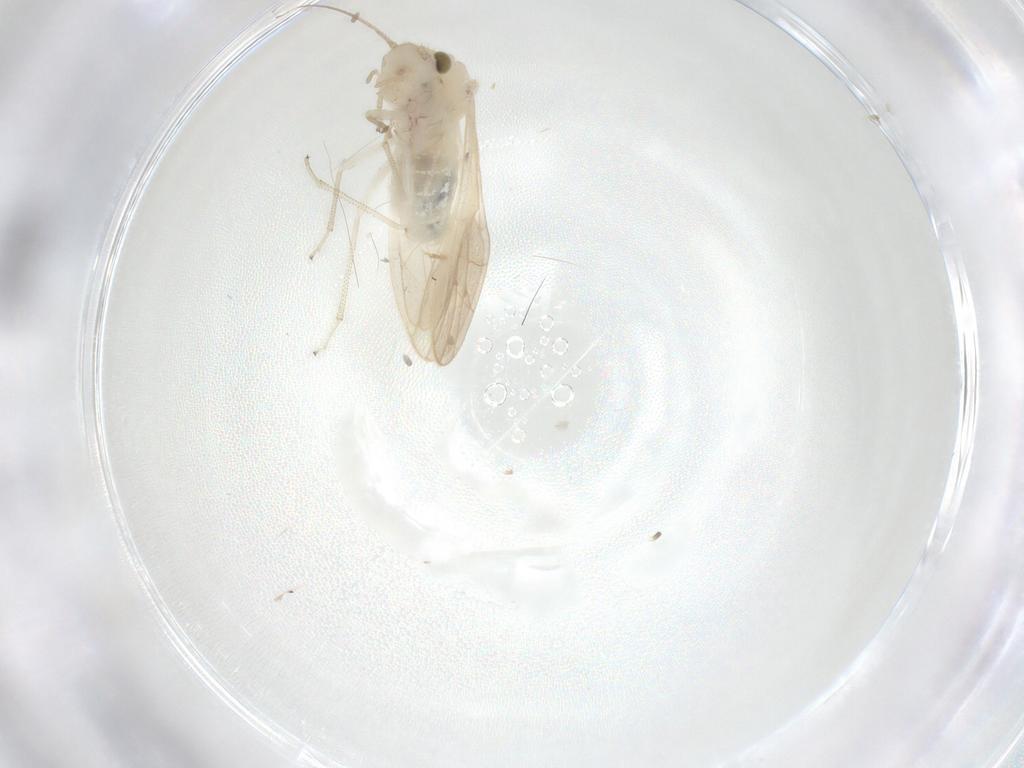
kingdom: Animalia
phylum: Arthropoda
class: Insecta
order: Psocodea
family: Caeciliusidae
